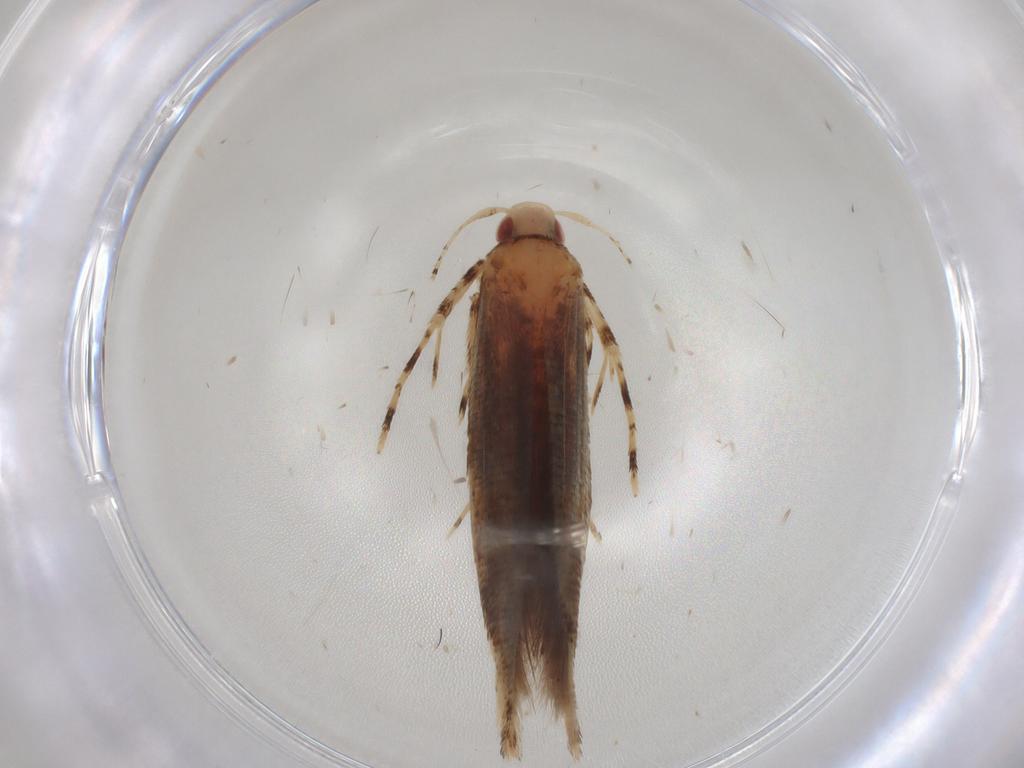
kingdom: Animalia
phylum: Arthropoda
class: Insecta
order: Lepidoptera
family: Cosmopterigidae
